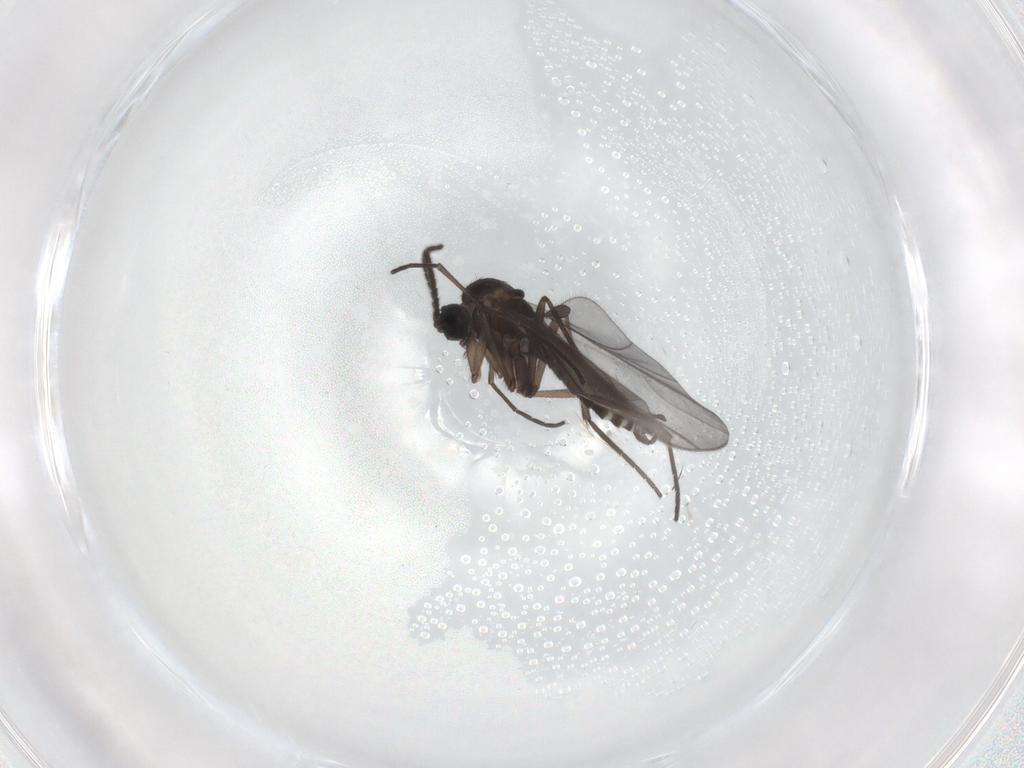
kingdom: Animalia
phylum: Arthropoda
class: Insecta
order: Diptera
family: Sciaridae
